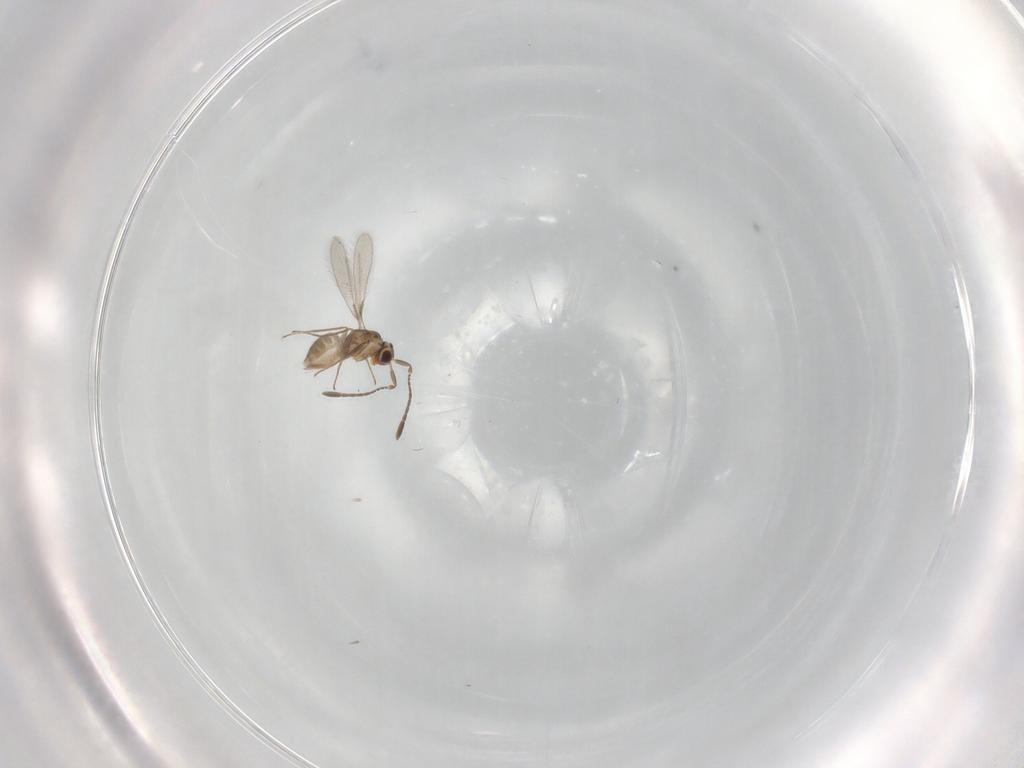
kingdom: Animalia
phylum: Arthropoda
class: Insecta
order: Hymenoptera
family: Mymaridae
